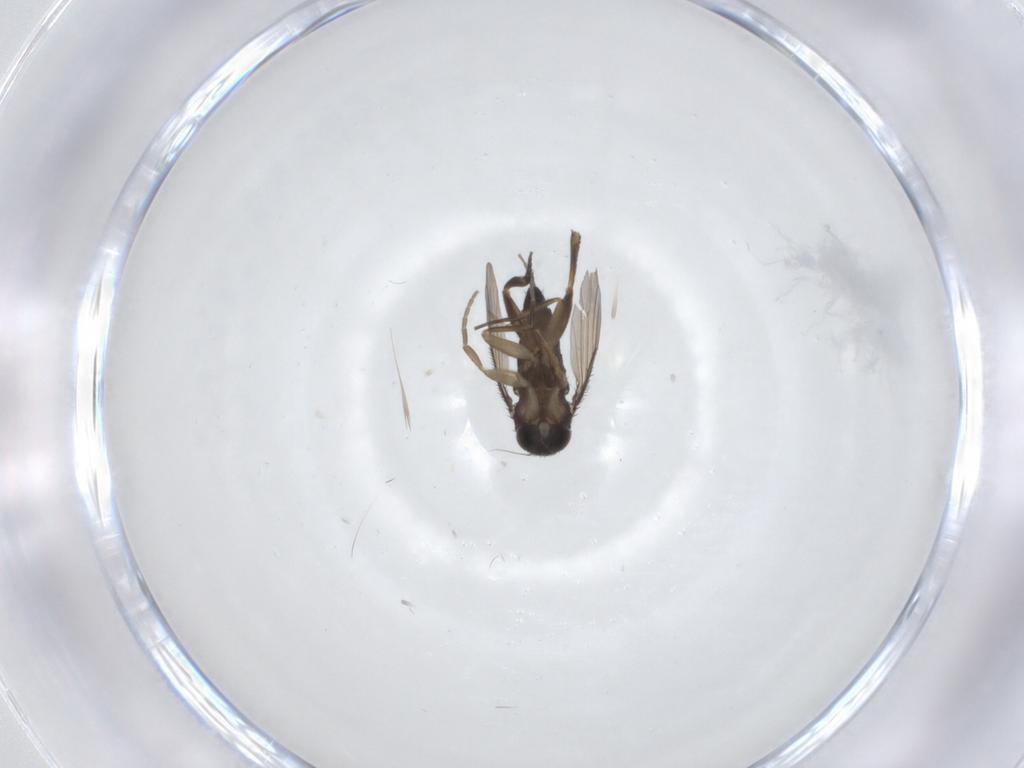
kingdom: Animalia
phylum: Arthropoda
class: Insecta
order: Diptera
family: Phoridae
